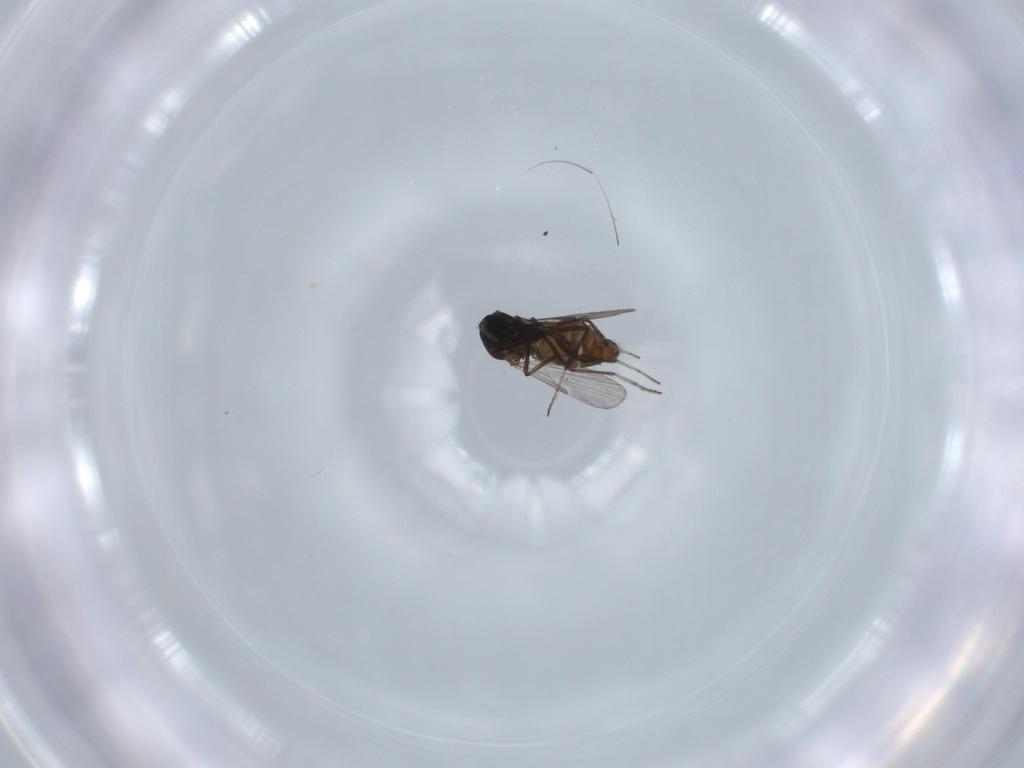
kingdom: Animalia
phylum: Arthropoda
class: Insecta
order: Diptera
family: Ceratopogonidae
